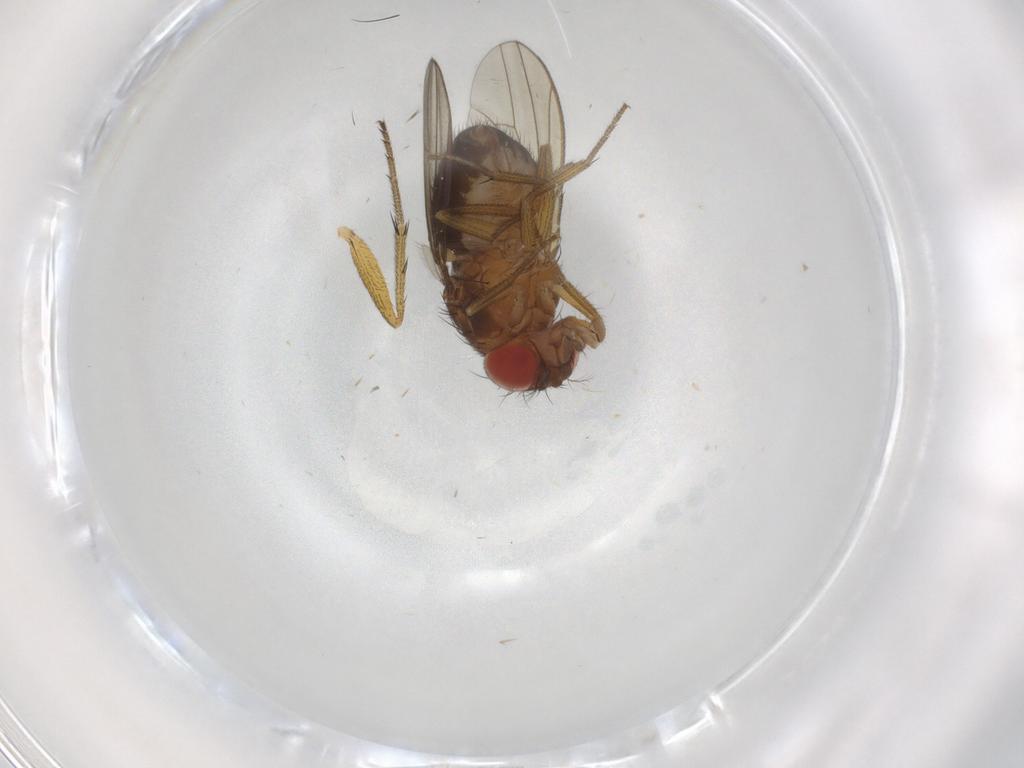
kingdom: Animalia
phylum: Arthropoda
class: Insecta
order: Diptera
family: Drosophilidae
